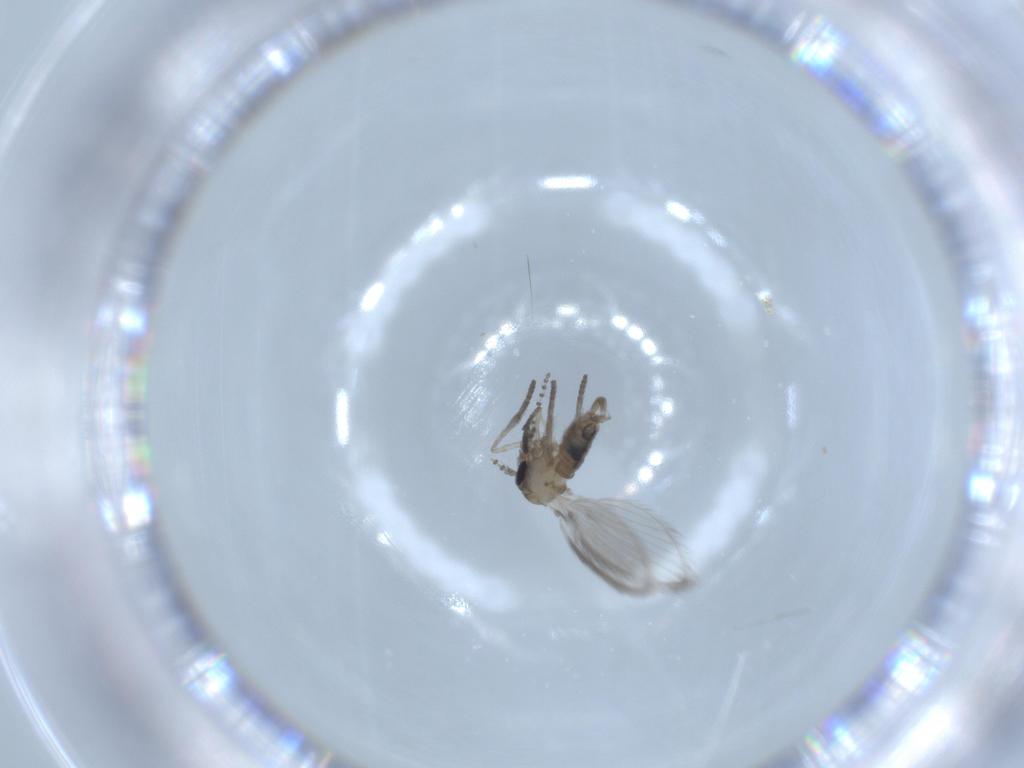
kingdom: Animalia
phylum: Arthropoda
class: Insecta
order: Diptera
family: Psychodidae
